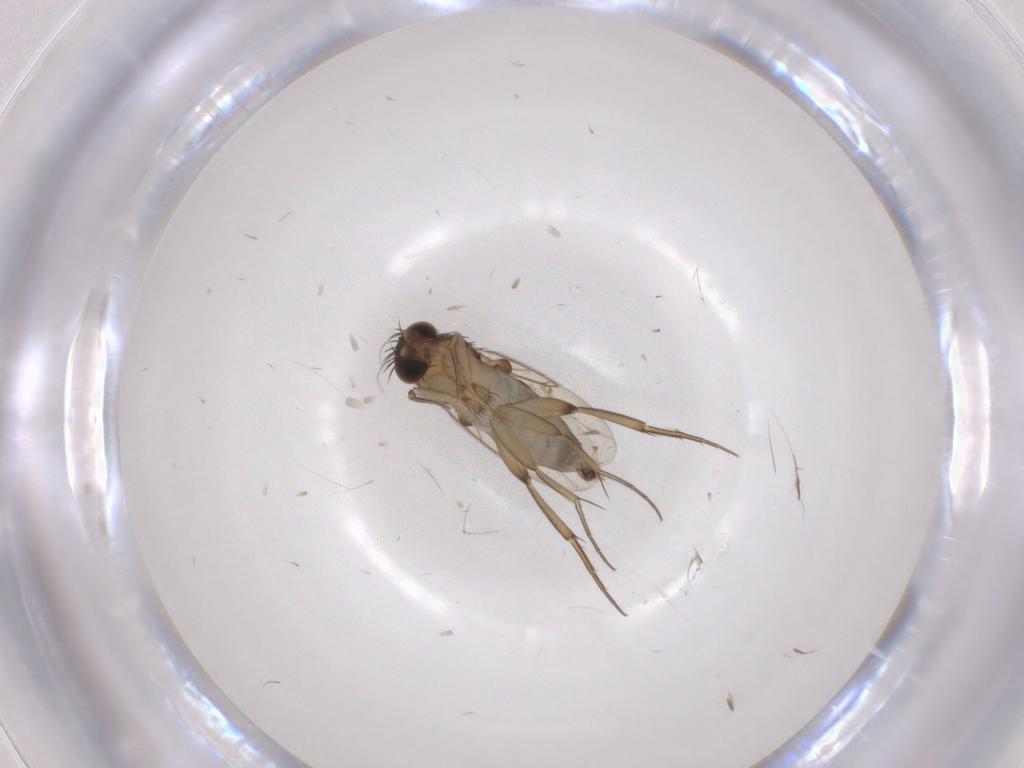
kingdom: Animalia
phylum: Arthropoda
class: Insecta
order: Diptera
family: Phoridae
